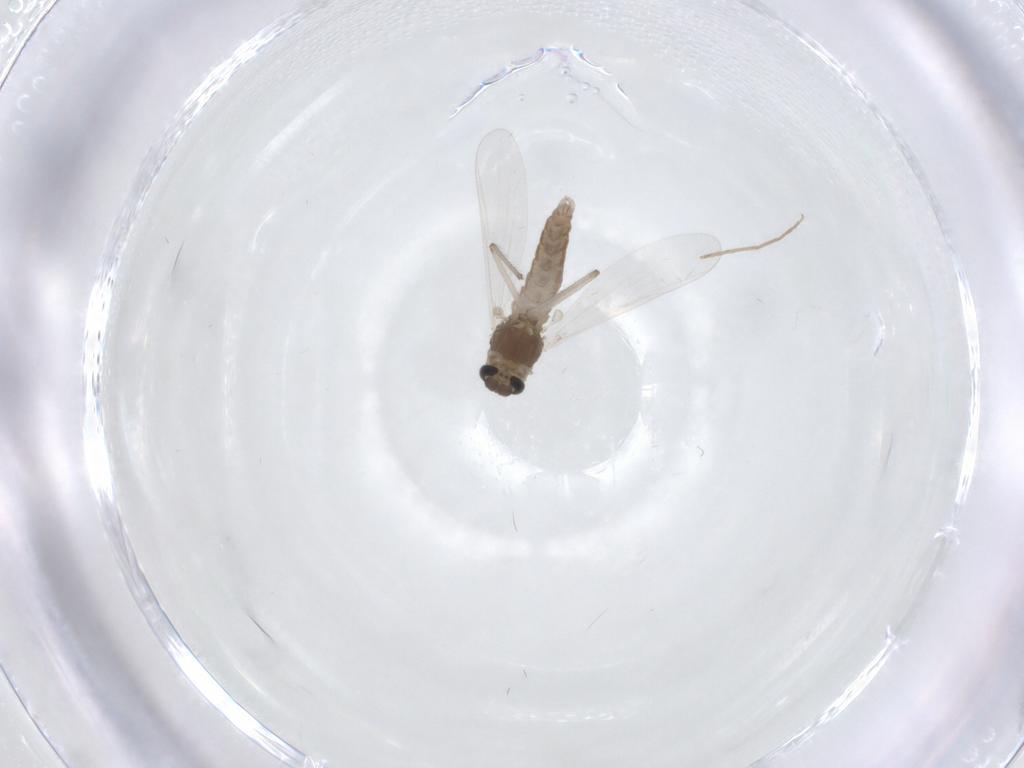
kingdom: Animalia
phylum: Arthropoda
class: Insecta
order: Diptera
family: Chironomidae
